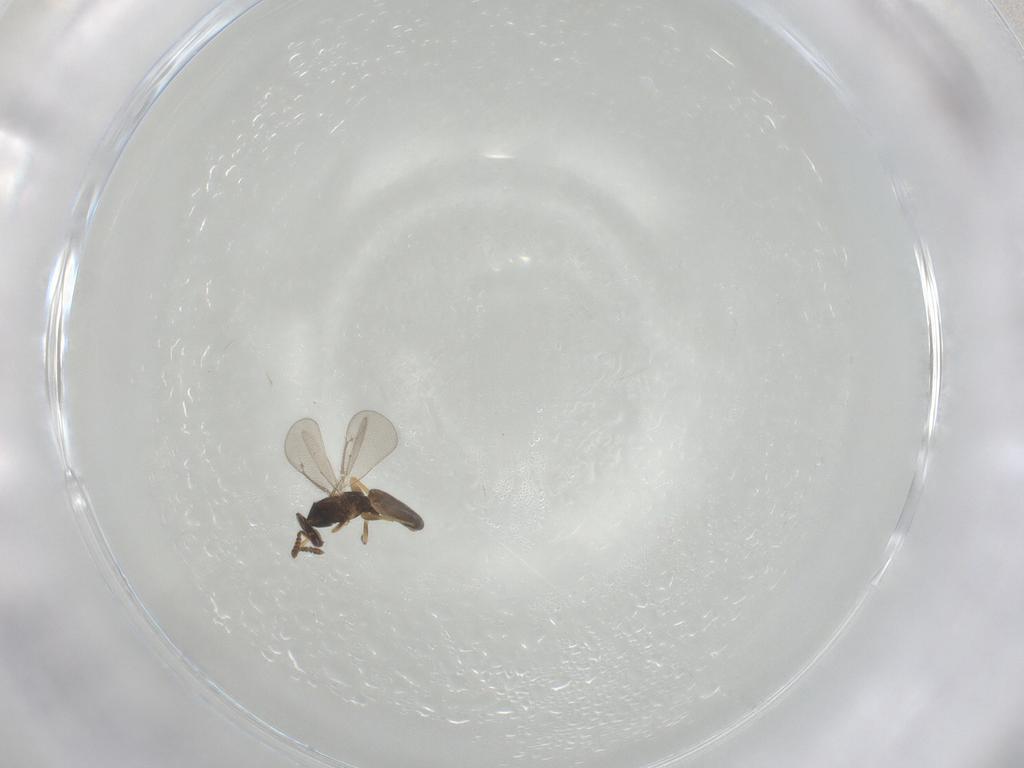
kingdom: Animalia
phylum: Arthropoda
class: Insecta
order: Hymenoptera
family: Eulophidae
